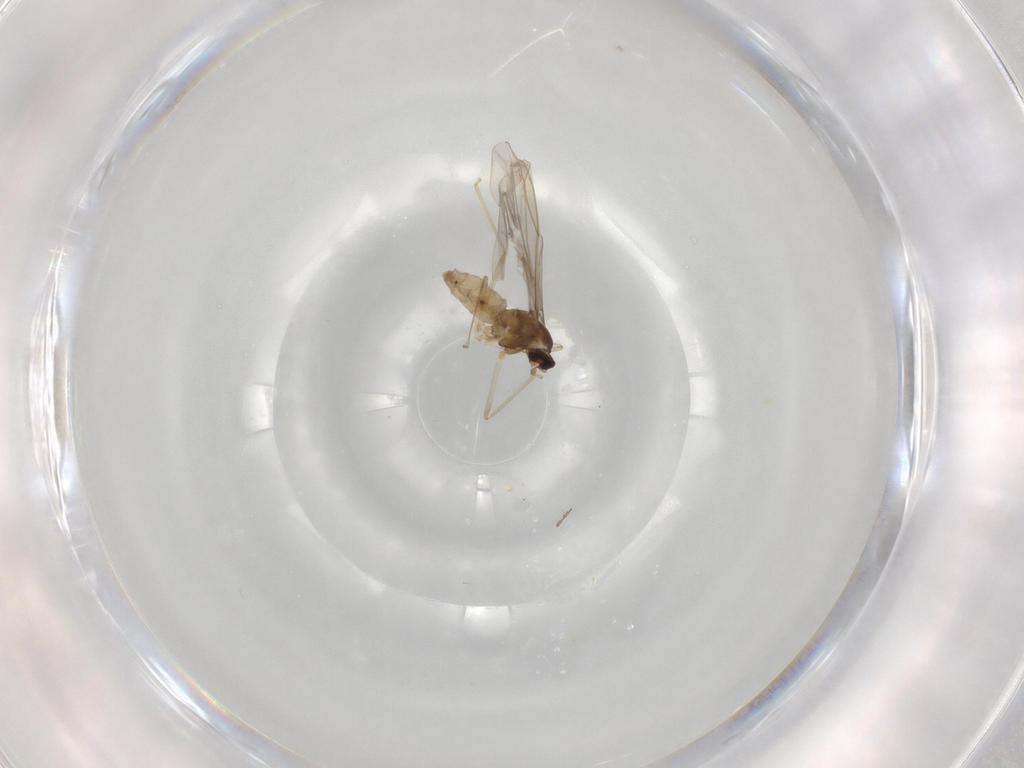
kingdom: Animalia
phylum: Arthropoda
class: Insecta
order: Diptera
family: Cecidomyiidae
